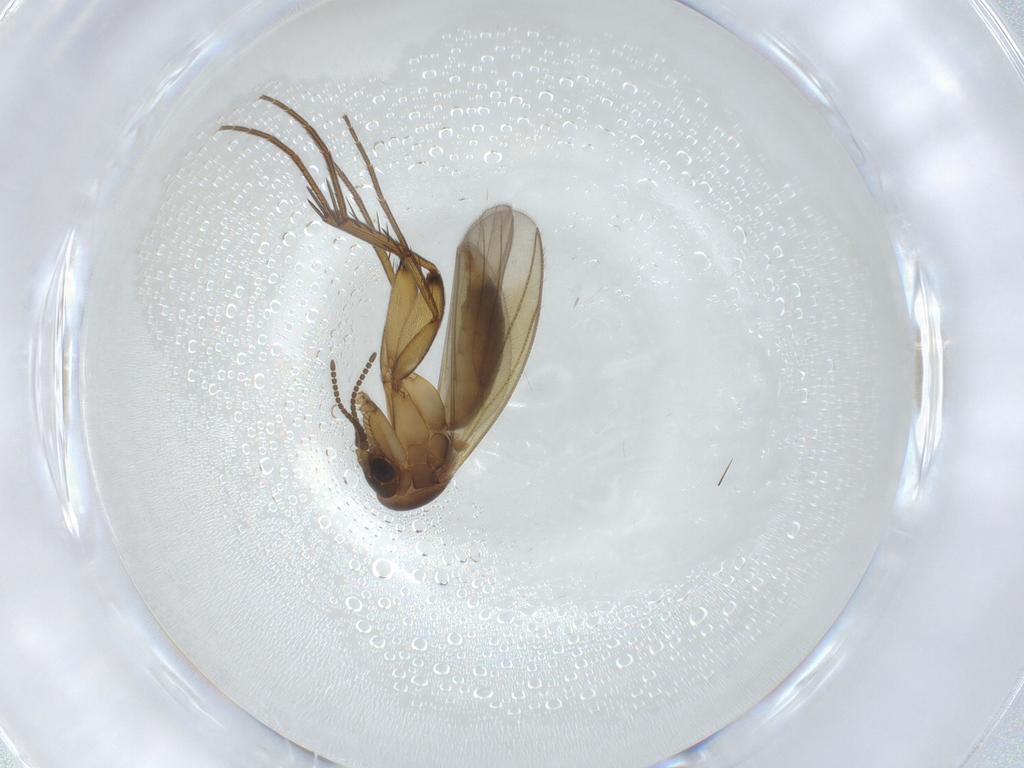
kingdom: Animalia
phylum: Arthropoda
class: Insecta
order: Diptera
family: Mycetophilidae
